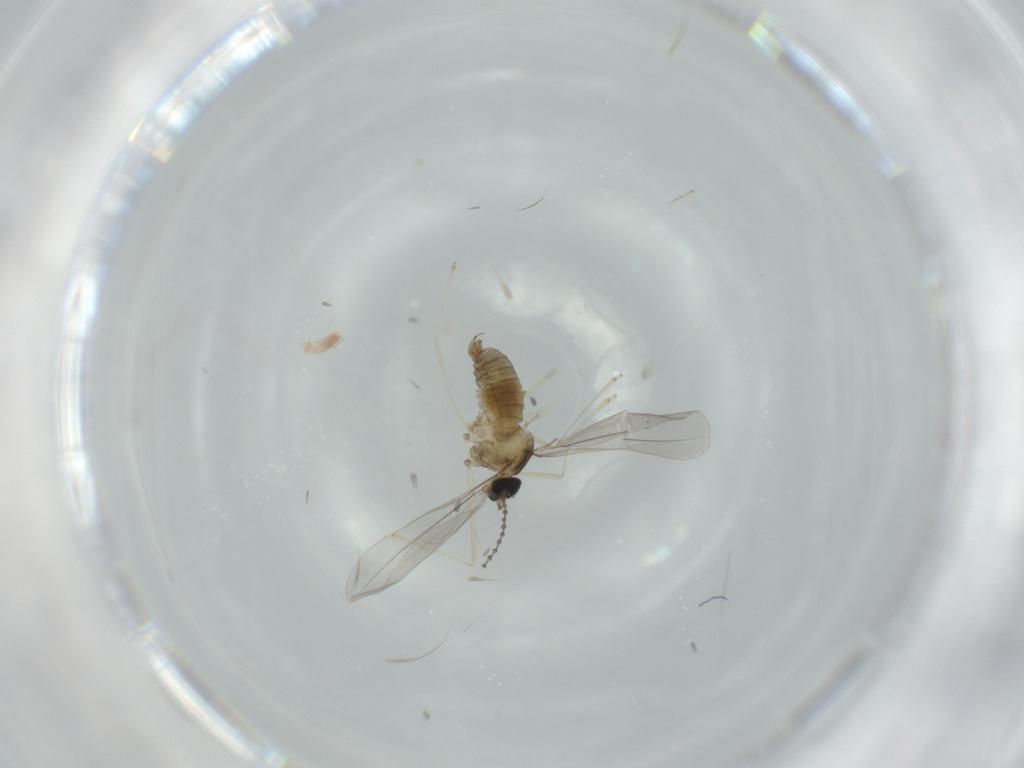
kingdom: Animalia
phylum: Arthropoda
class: Insecta
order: Diptera
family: Cecidomyiidae
